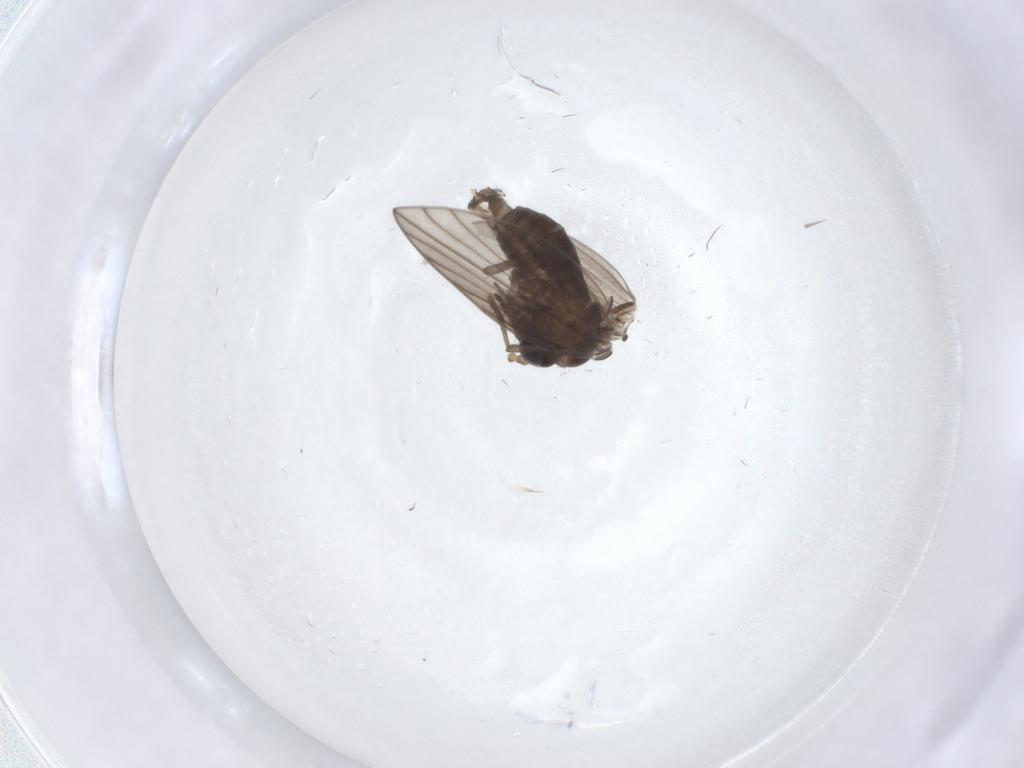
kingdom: Animalia
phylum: Arthropoda
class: Insecta
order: Diptera
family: Psychodidae
